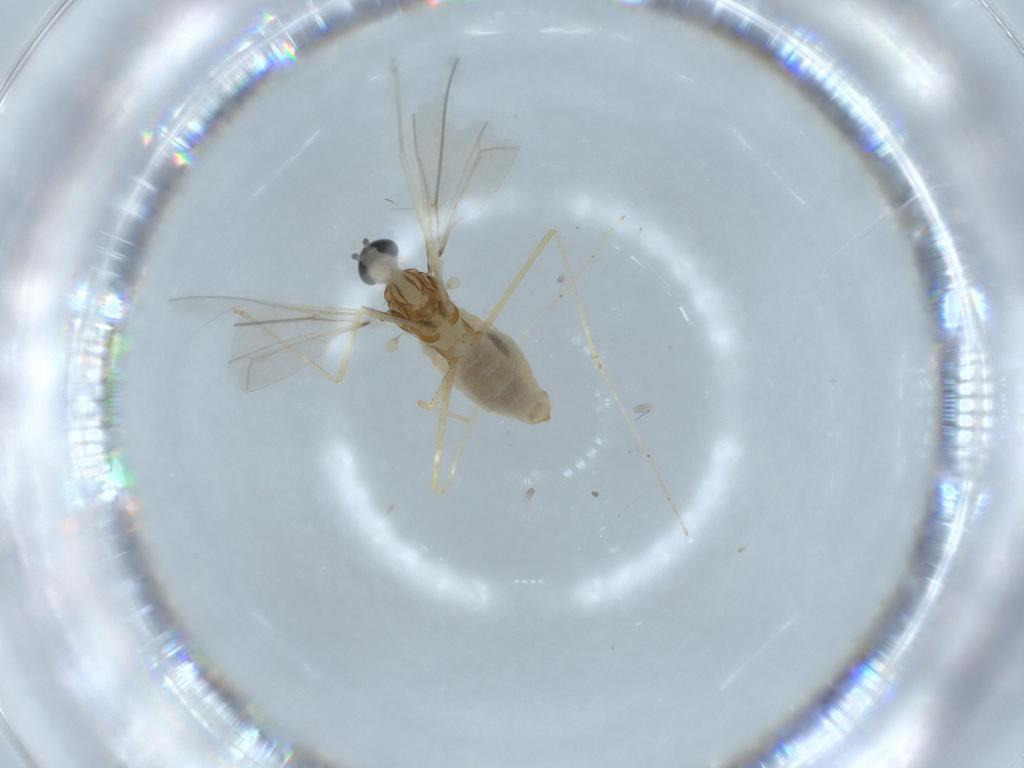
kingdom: Animalia
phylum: Arthropoda
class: Insecta
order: Diptera
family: Cecidomyiidae
